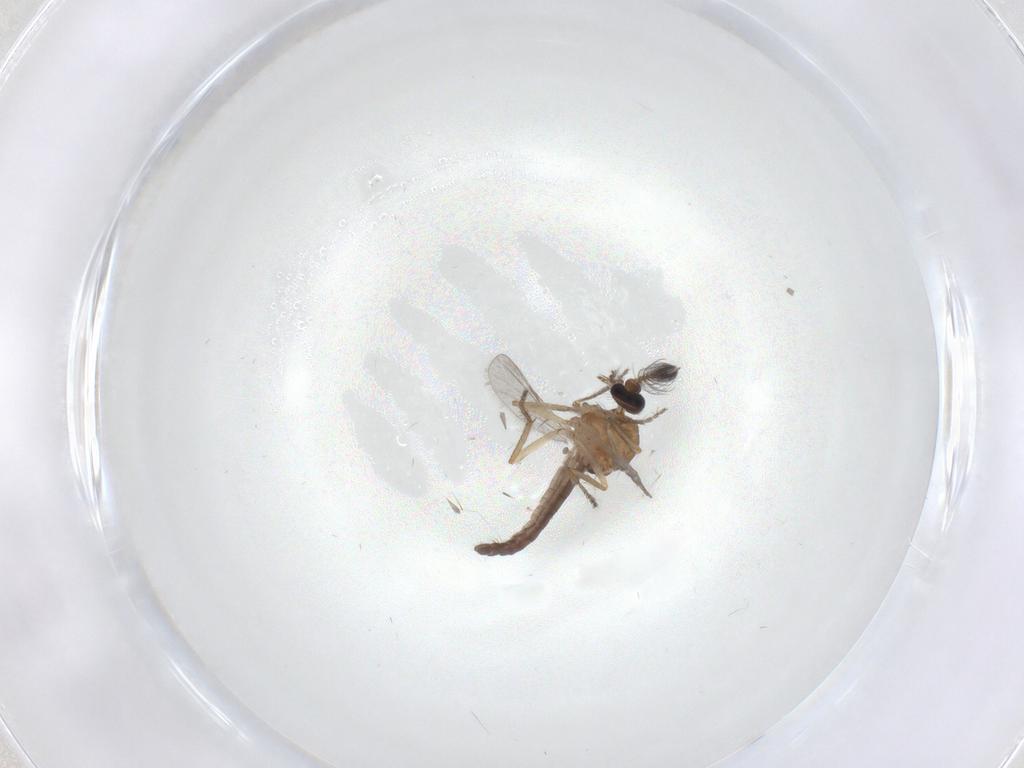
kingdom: Animalia
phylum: Arthropoda
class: Insecta
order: Diptera
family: Ceratopogonidae
